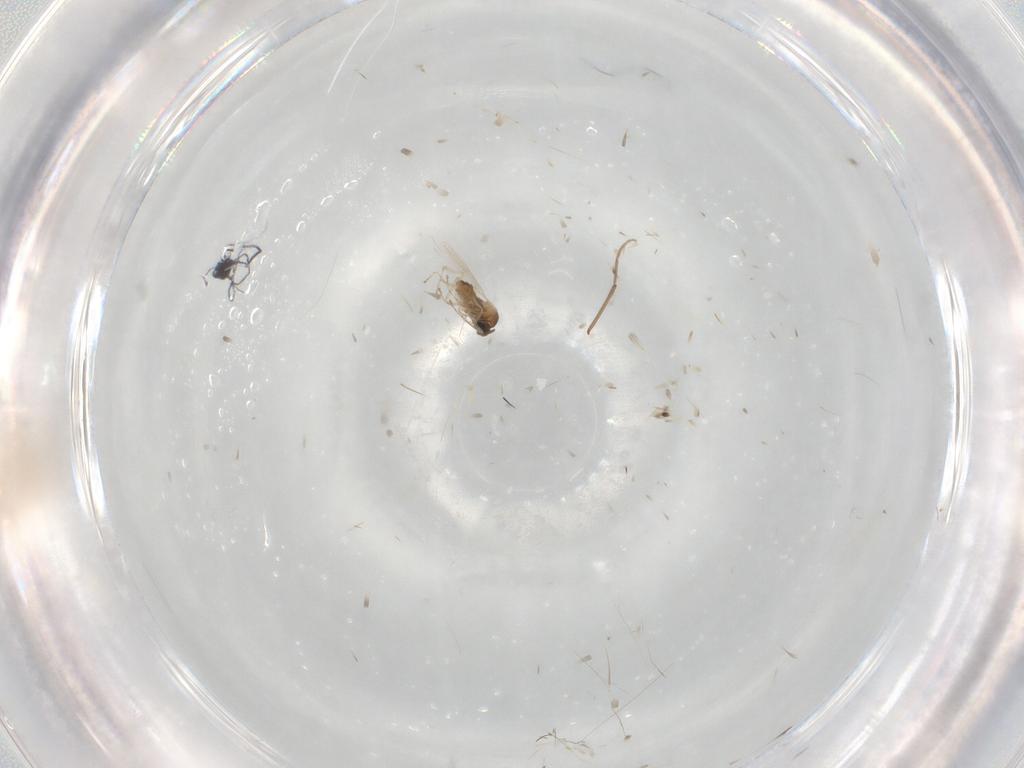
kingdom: Animalia
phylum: Arthropoda
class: Insecta
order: Diptera
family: Chironomidae
